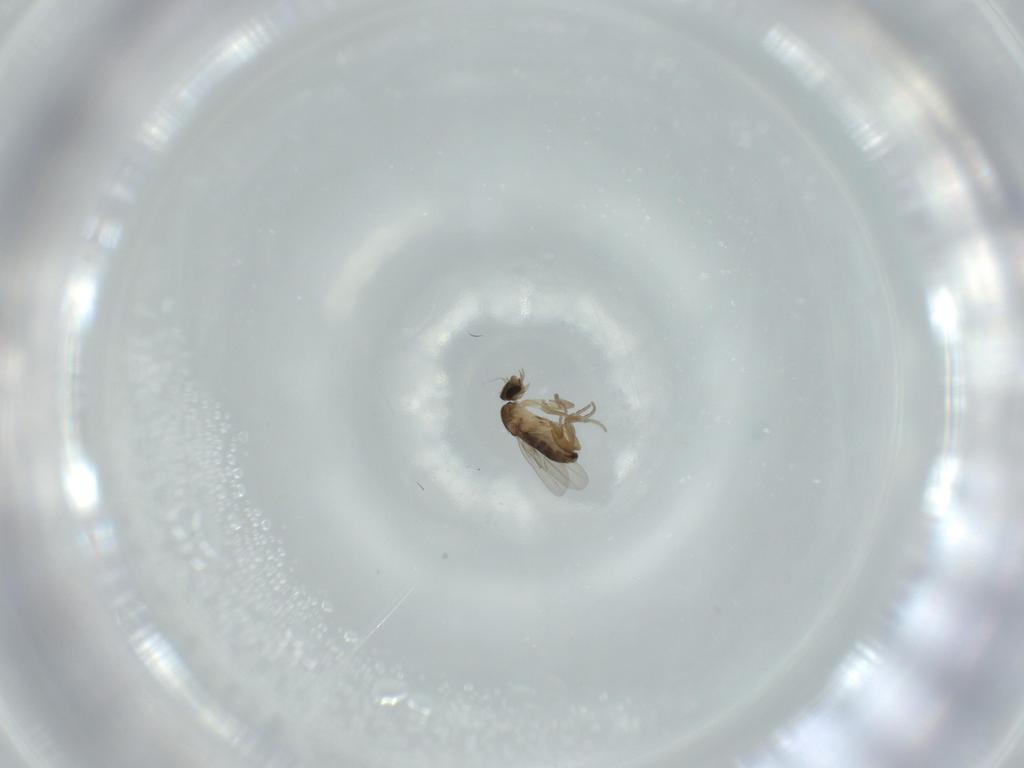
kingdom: Animalia
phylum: Arthropoda
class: Insecta
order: Diptera
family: Phoridae
